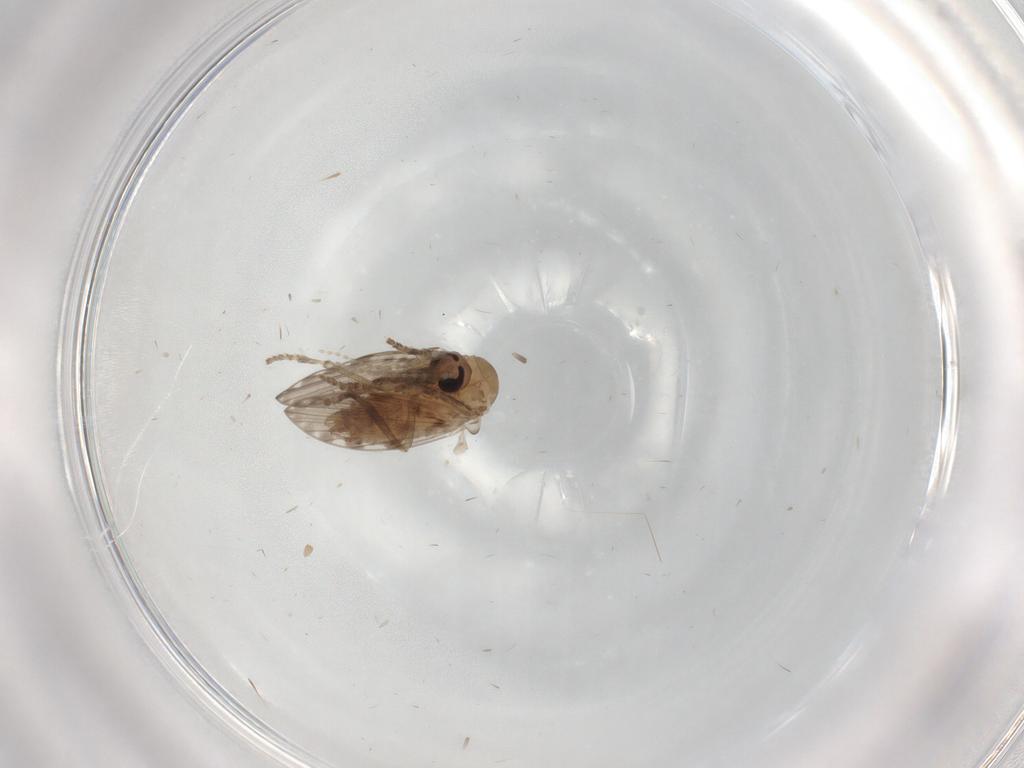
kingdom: Animalia
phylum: Arthropoda
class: Insecta
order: Diptera
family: Psychodidae
